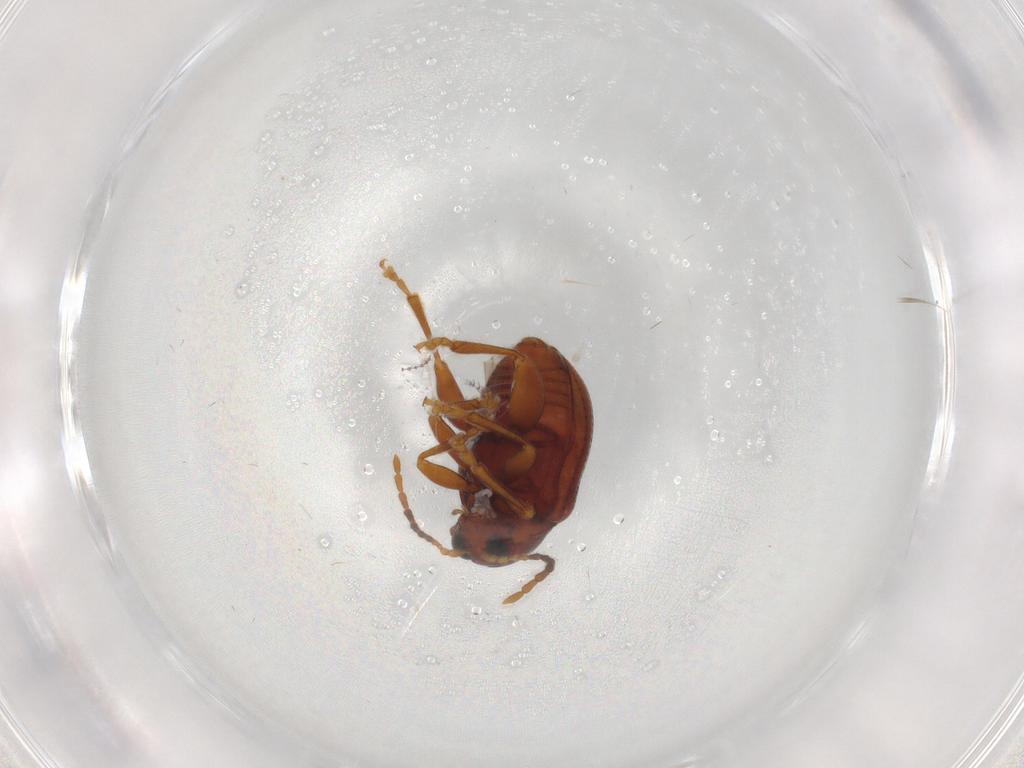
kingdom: Animalia
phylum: Arthropoda
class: Insecta
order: Coleoptera
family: Chrysomelidae
